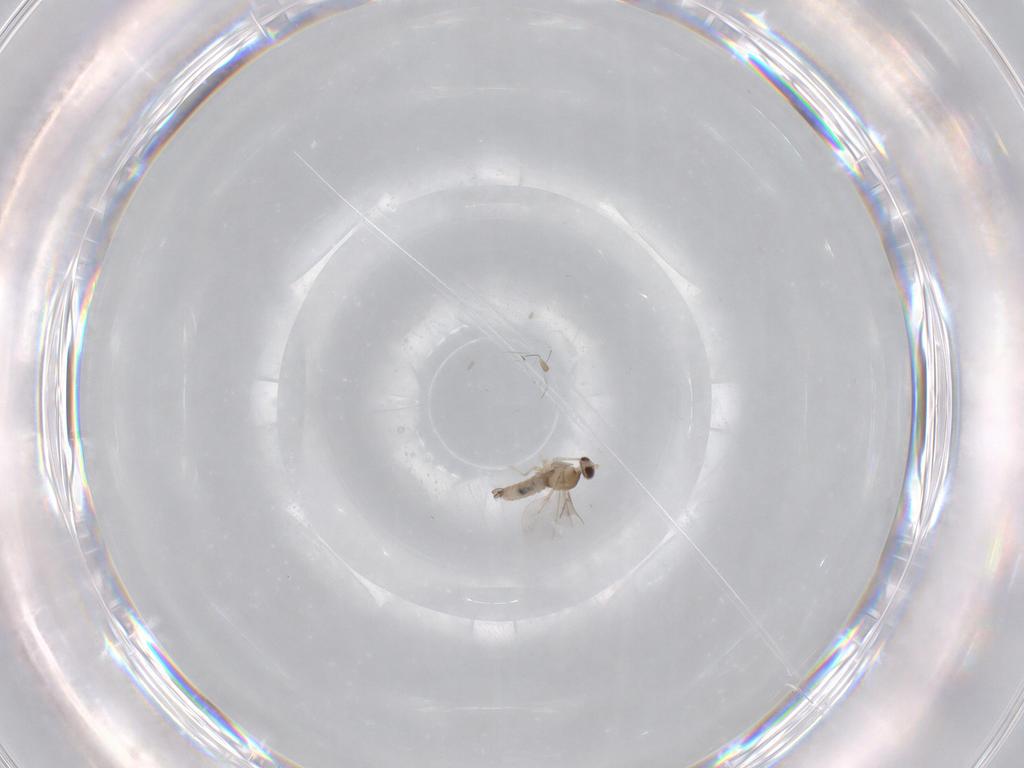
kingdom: Animalia
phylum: Arthropoda
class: Insecta
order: Diptera
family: Cecidomyiidae
